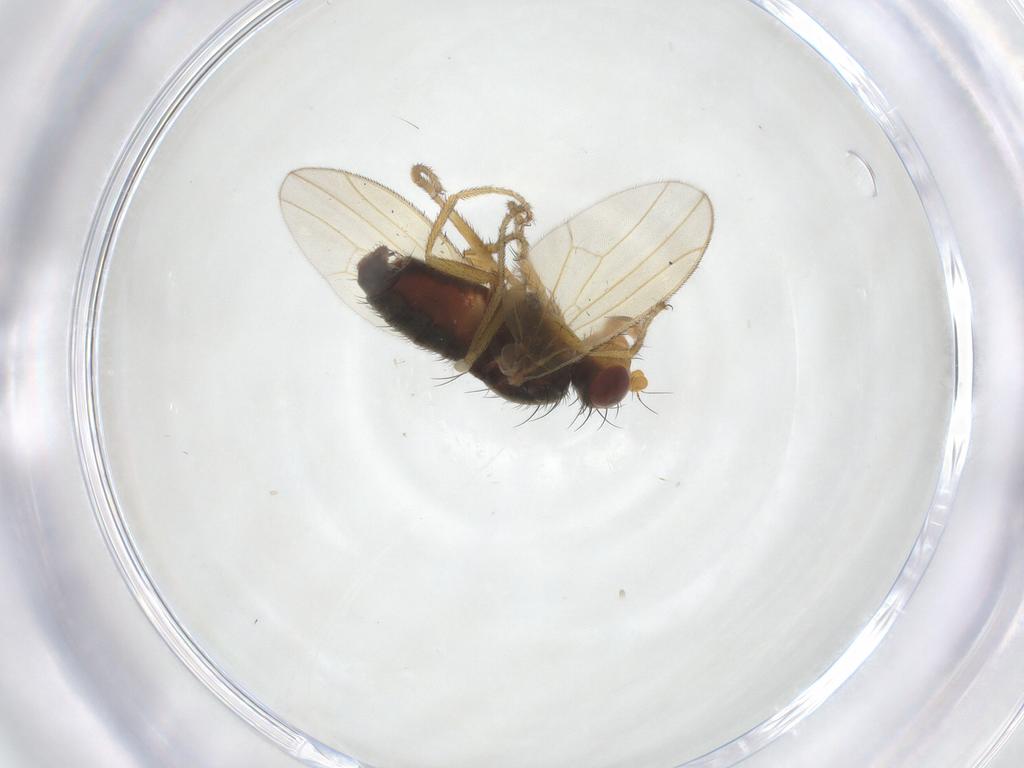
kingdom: Animalia
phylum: Arthropoda
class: Insecta
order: Diptera
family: Heleomyzidae
